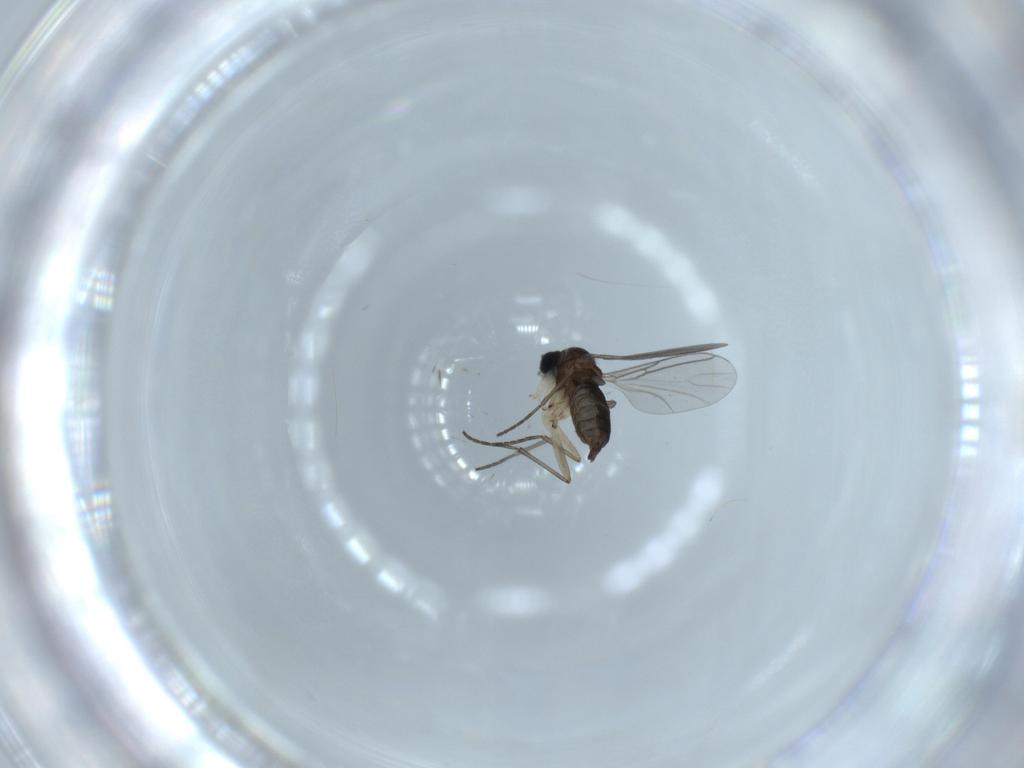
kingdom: Animalia
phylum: Arthropoda
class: Insecta
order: Diptera
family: Sciaridae
